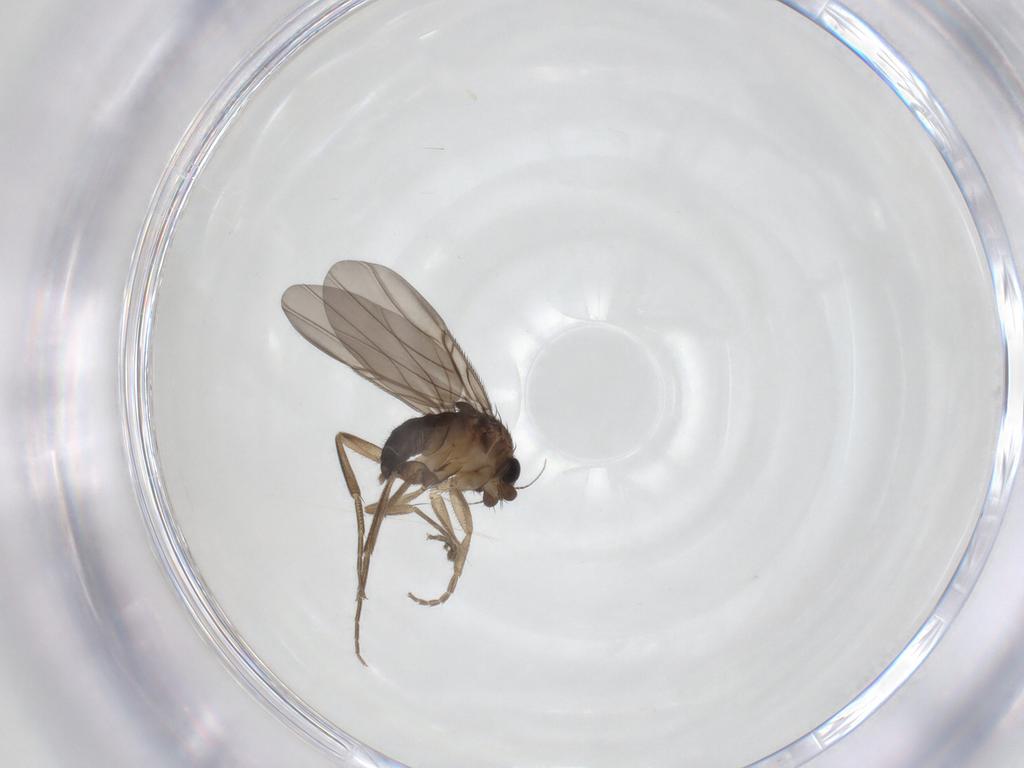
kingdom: Animalia
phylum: Arthropoda
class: Insecta
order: Diptera
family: Phoridae
